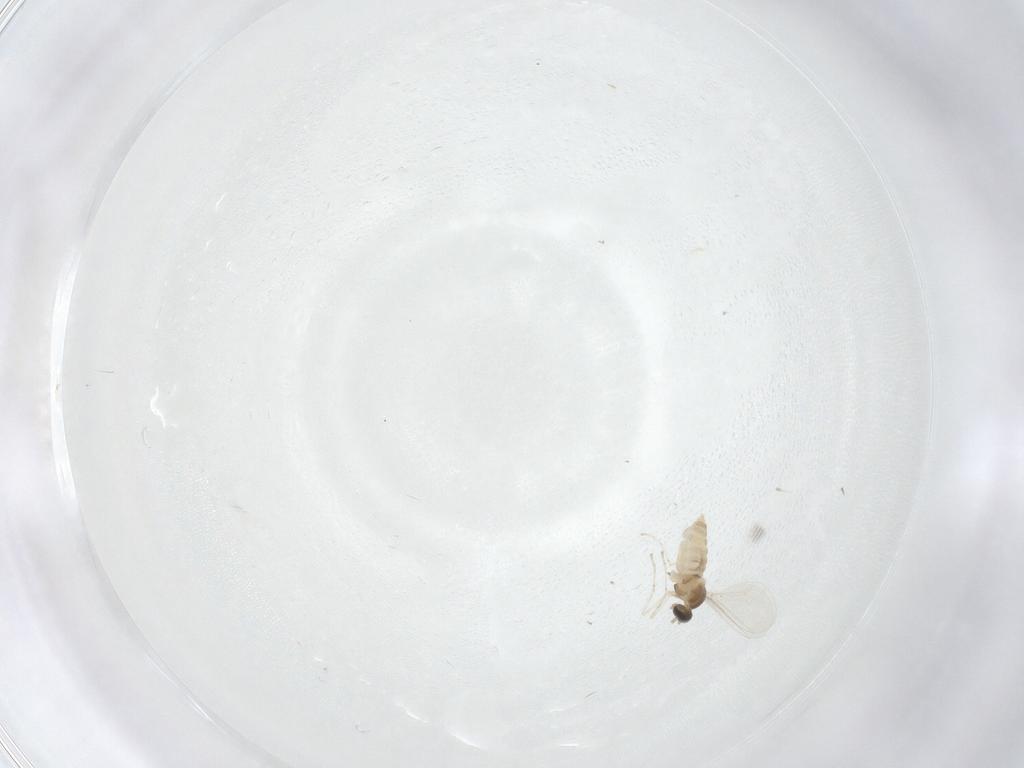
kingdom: Animalia
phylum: Arthropoda
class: Insecta
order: Diptera
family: Cecidomyiidae
